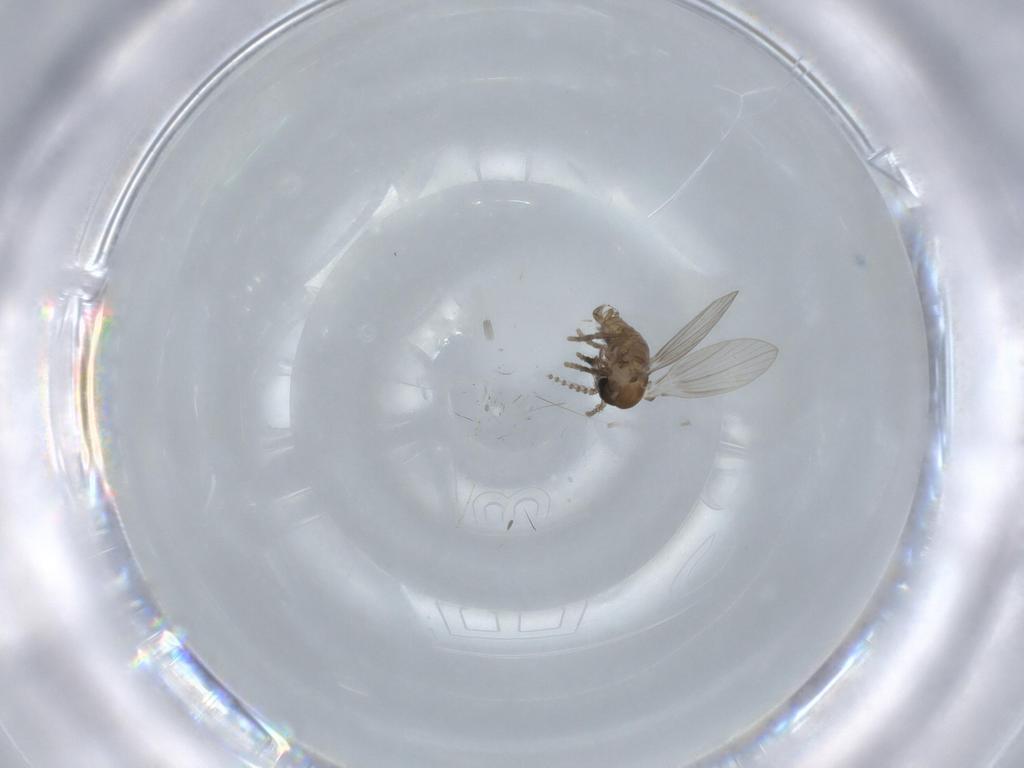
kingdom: Animalia
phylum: Arthropoda
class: Insecta
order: Diptera
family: Psychodidae
